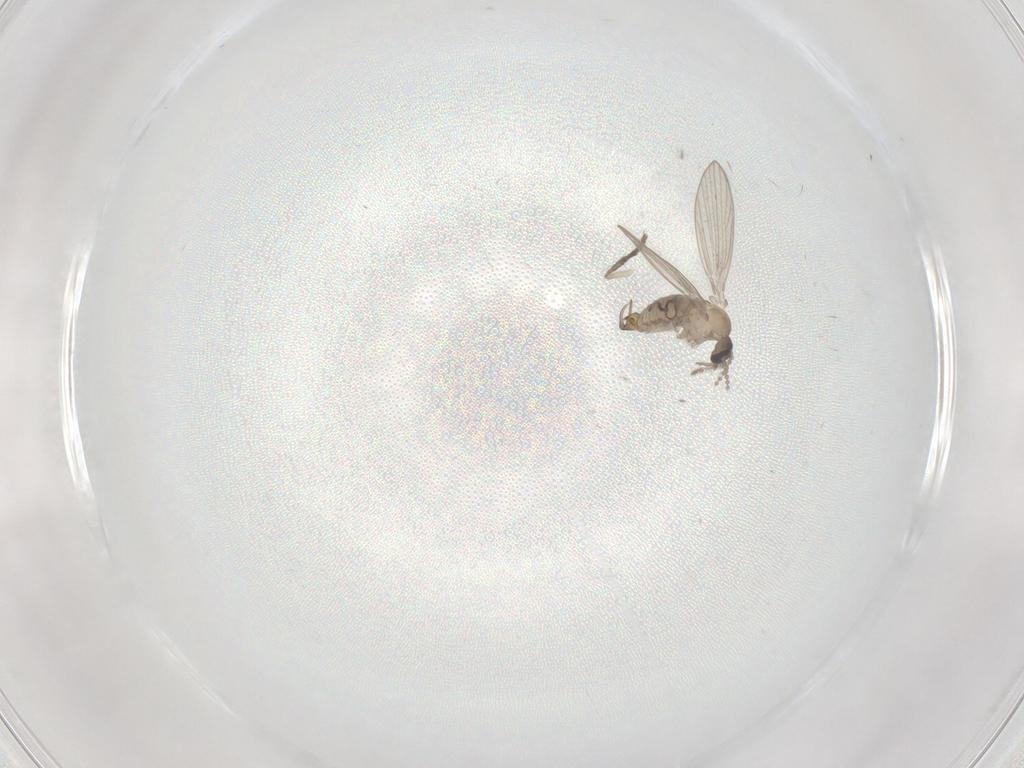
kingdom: Animalia
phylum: Arthropoda
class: Insecta
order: Diptera
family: Psychodidae
